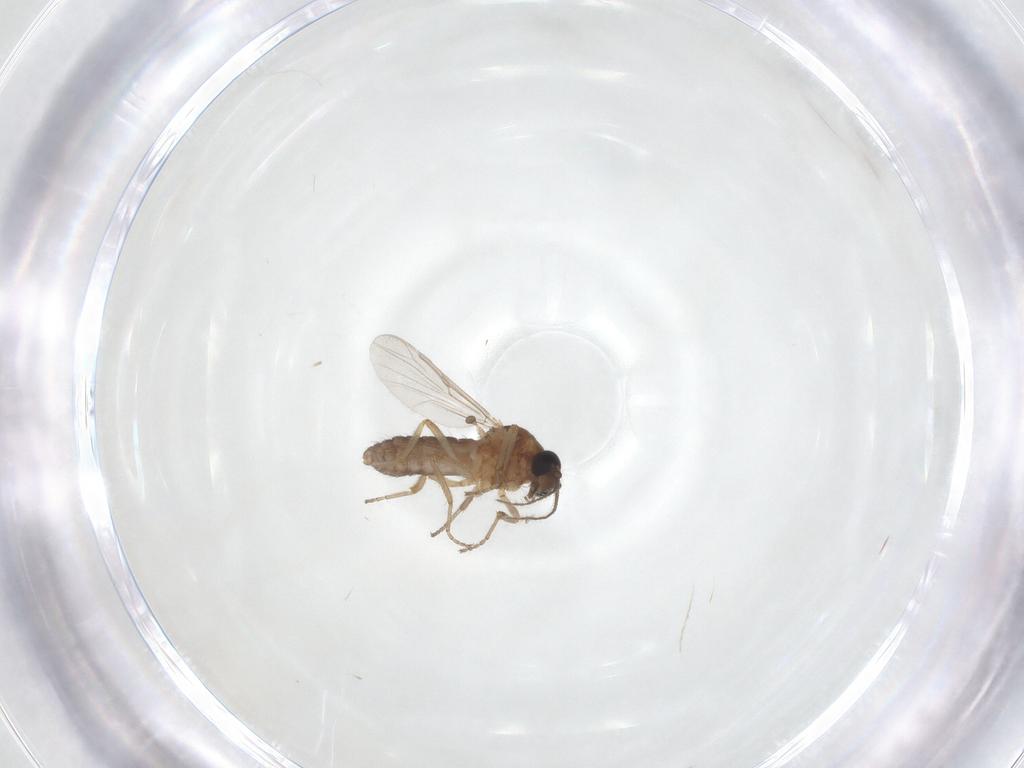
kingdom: Animalia
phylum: Arthropoda
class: Insecta
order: Diptera
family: Ceratopogonidae
